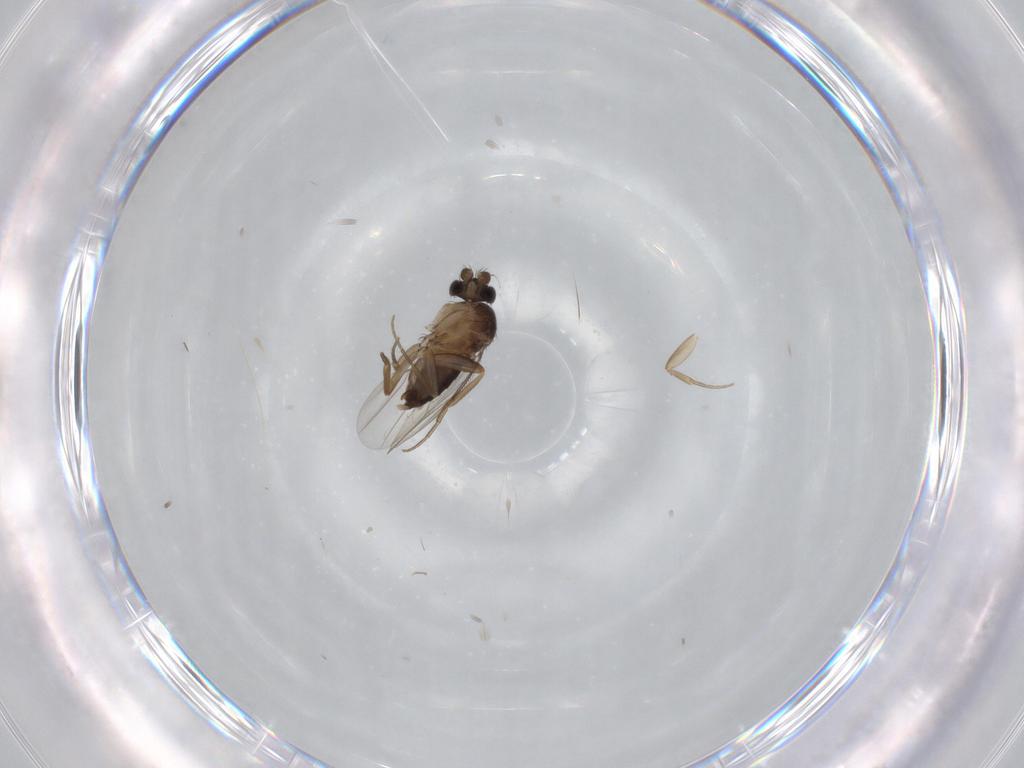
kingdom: Animalia
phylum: Arthropoda
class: Insecta
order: Diptera
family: Phoridae
